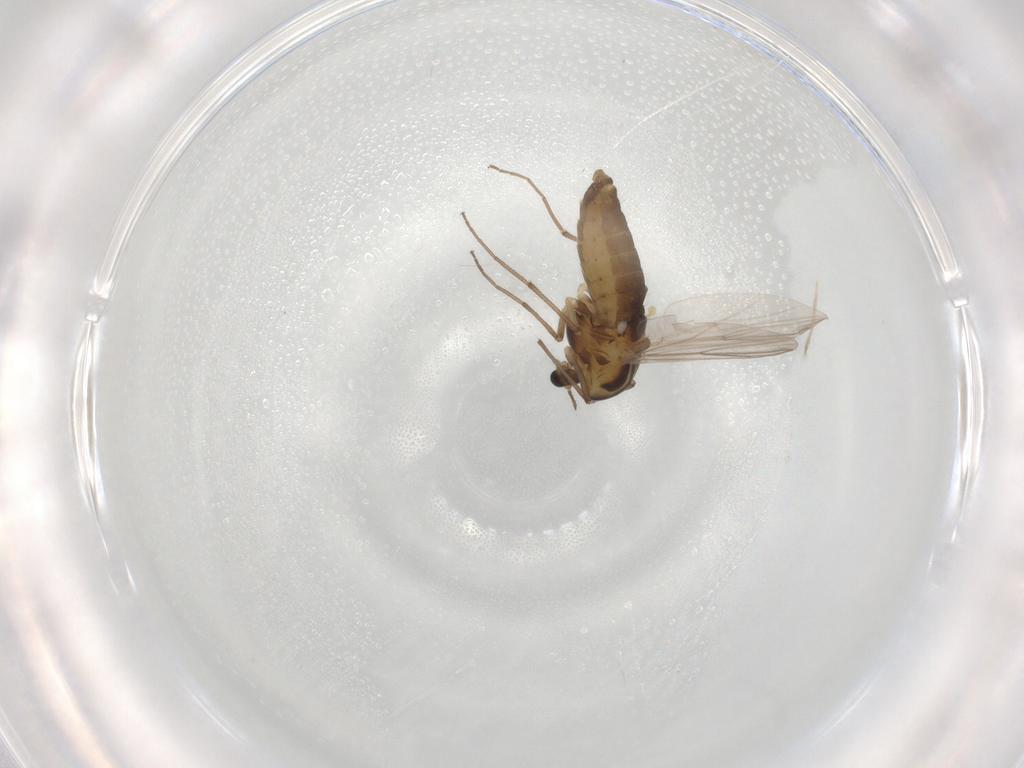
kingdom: Animalia
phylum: Arthropoda
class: Insecta
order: Diptera
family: Chironomidae
